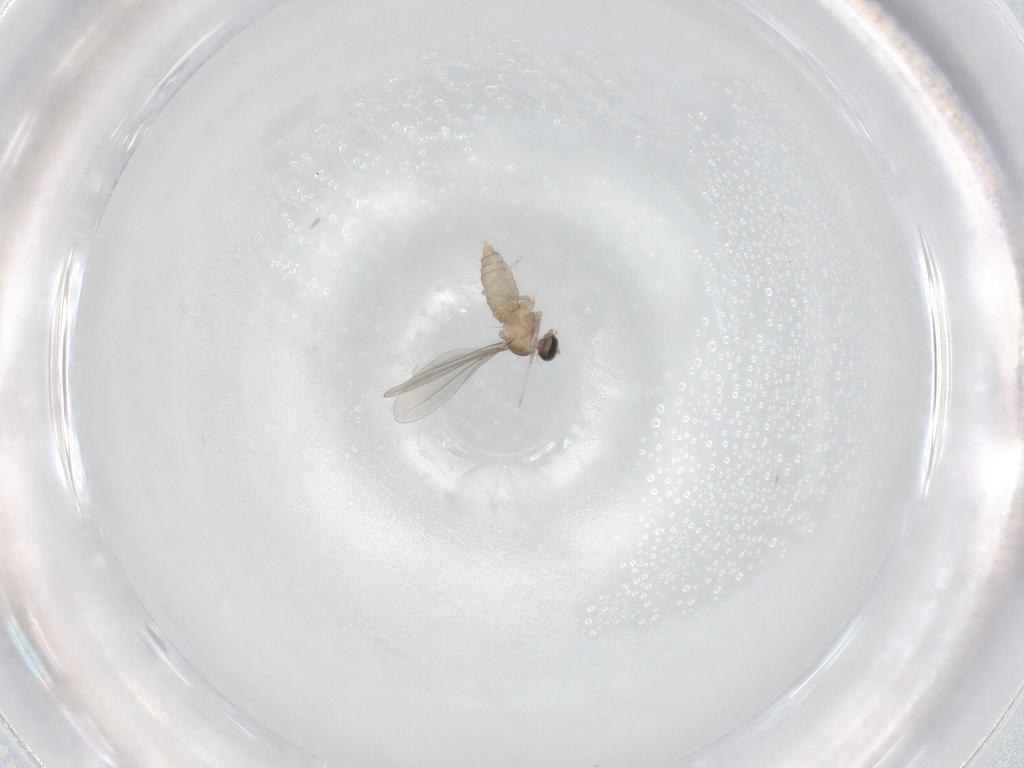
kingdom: Animalia
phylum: Arthropoda
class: Insecta
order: Diptera
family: Cecidomyiidae
